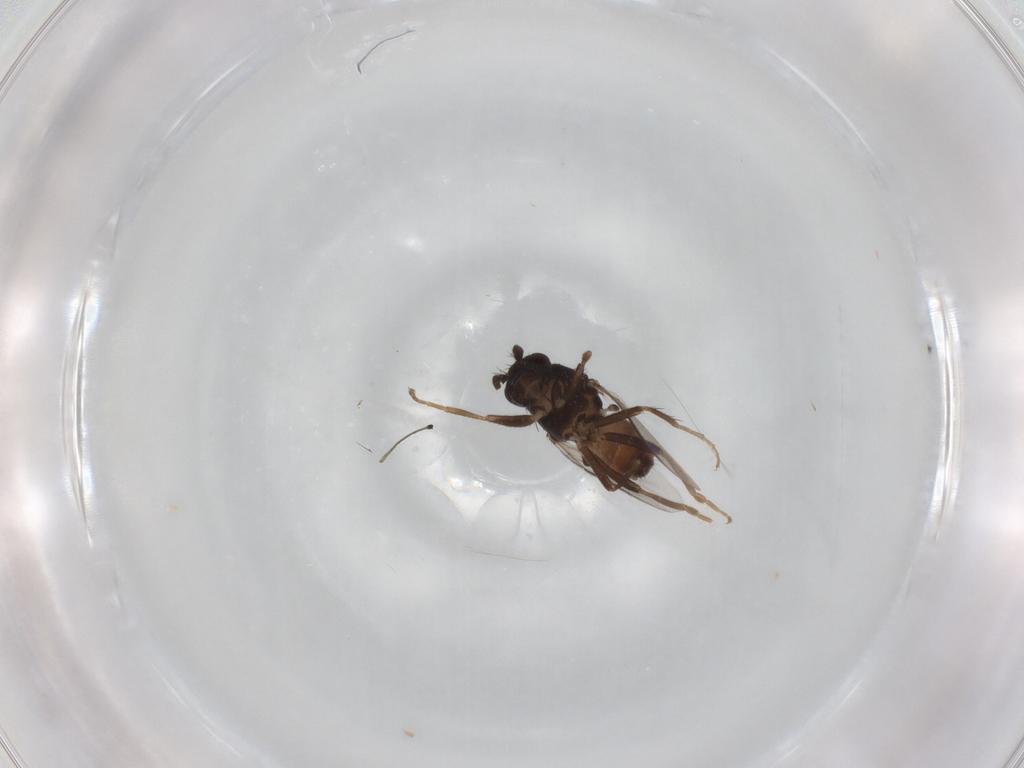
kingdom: Animalia
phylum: Arthropoda
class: Insecta
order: Diptera
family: Sphaeroceridae
